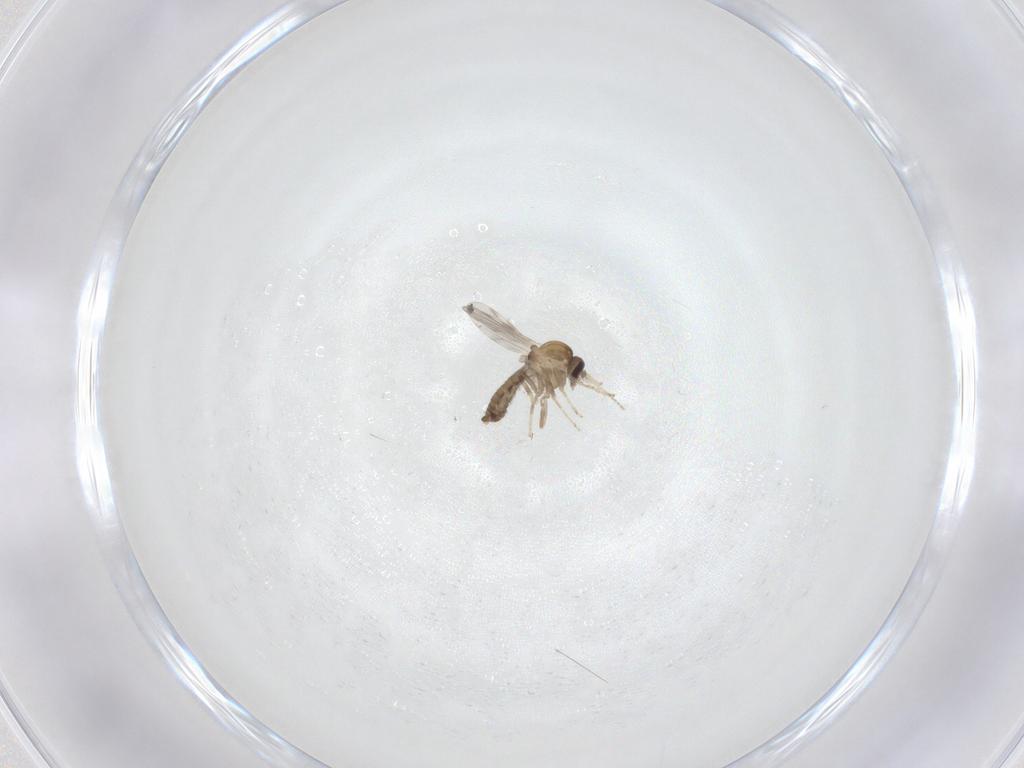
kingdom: Animalia
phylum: Arthropoda
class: Insecta
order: Diptera
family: Ceratopogonidae
